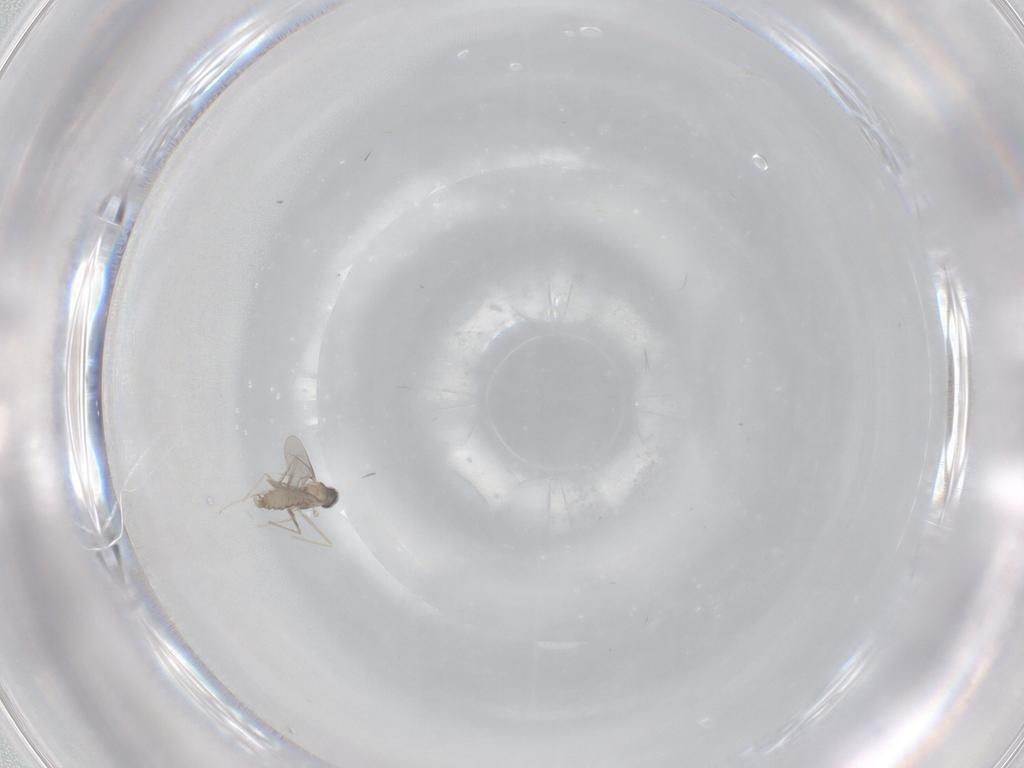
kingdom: Animalia
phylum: Arthropoda
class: Insecta
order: Diptera
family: Cecidomyiidae
